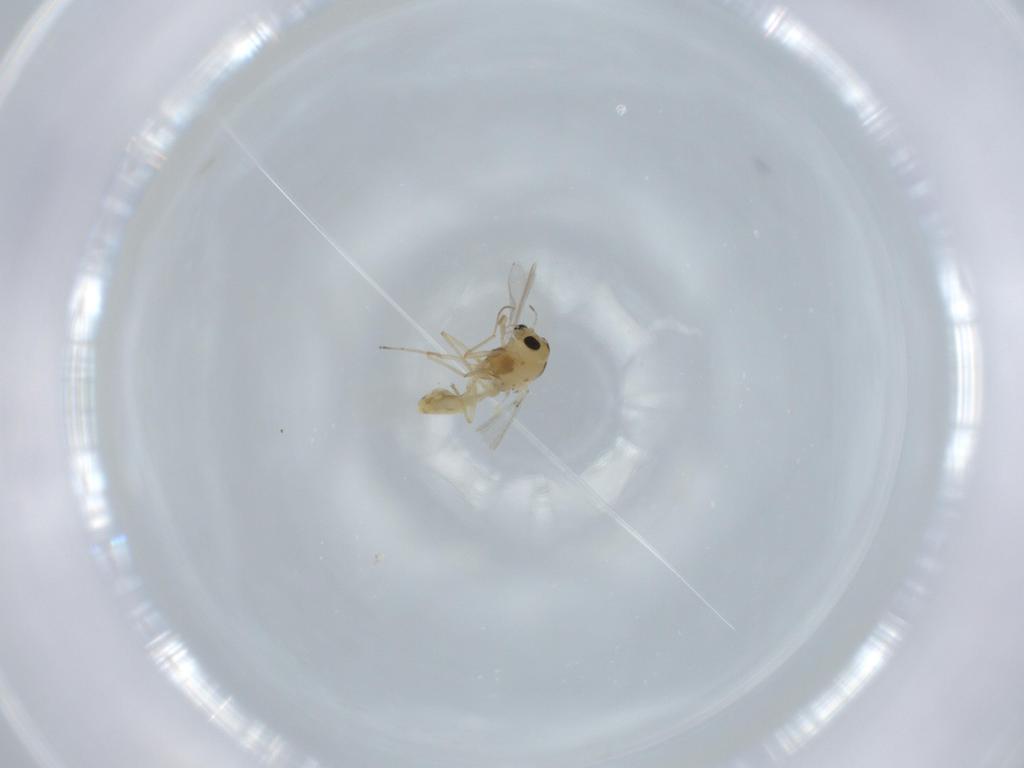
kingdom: Animalia
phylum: Arthropoda
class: Insecta
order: Diptera
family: Chironomidae
